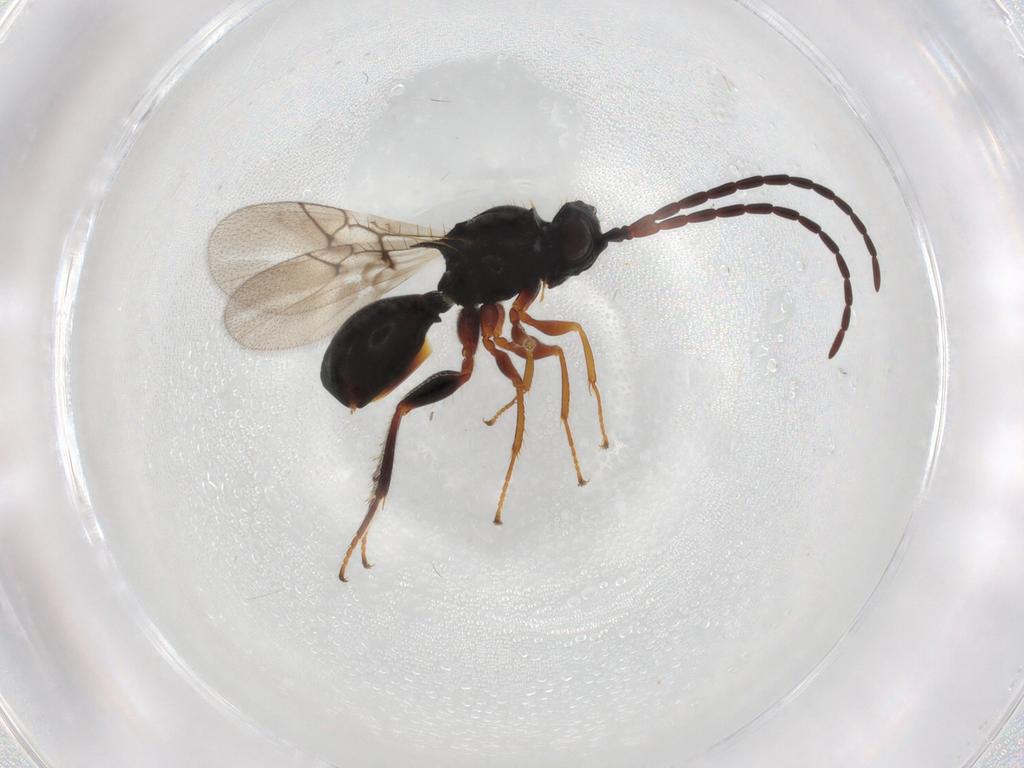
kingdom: Animalia
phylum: Arthropoda
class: Insecta
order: Hymenoptera
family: Figitidae
